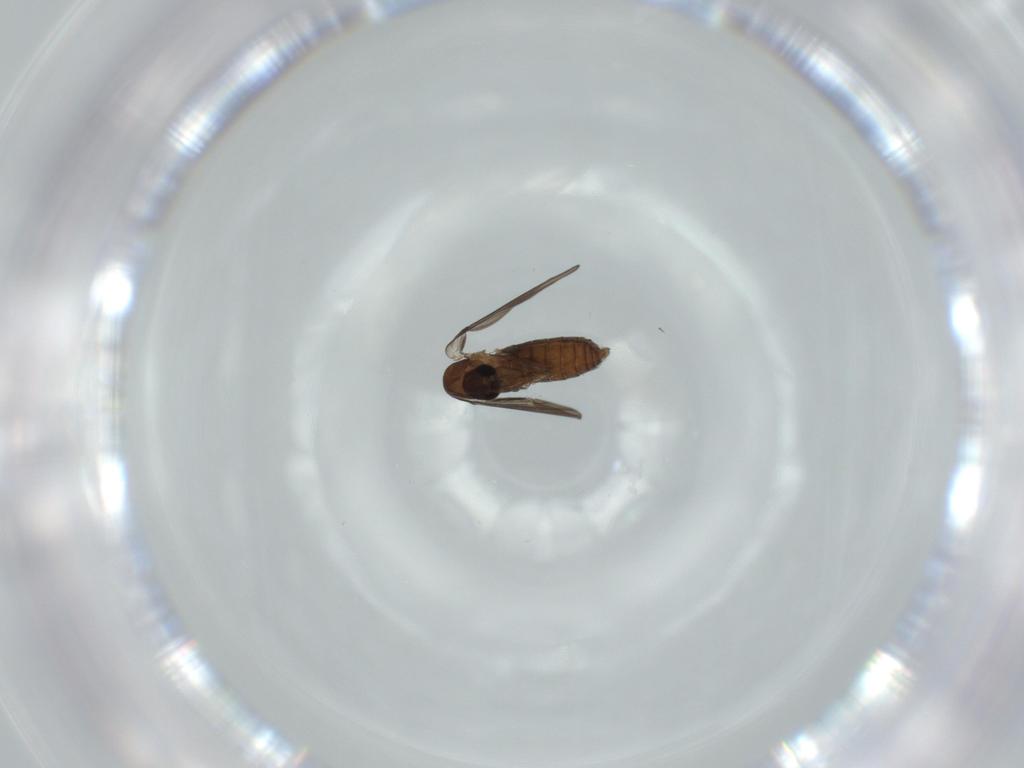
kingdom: Animalia
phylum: Arthropoda
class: Insecta
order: Diptera
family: Psychodidae
